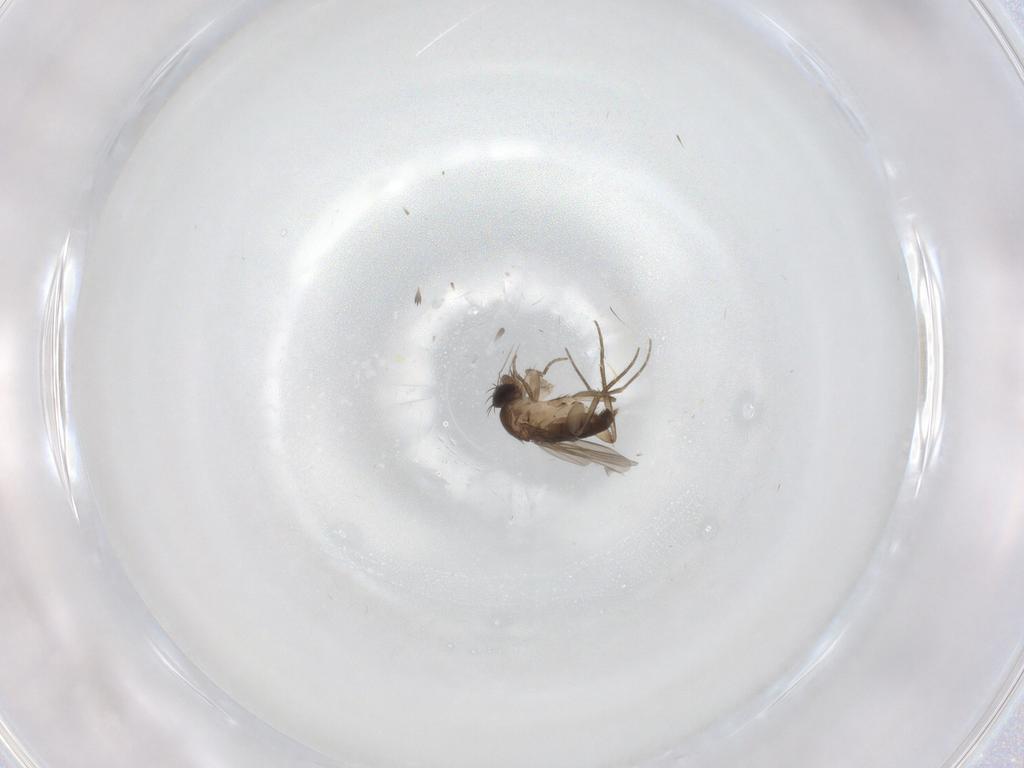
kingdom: Animalia
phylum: Arthropoda
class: Insecta
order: Diptera
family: Phoridae
